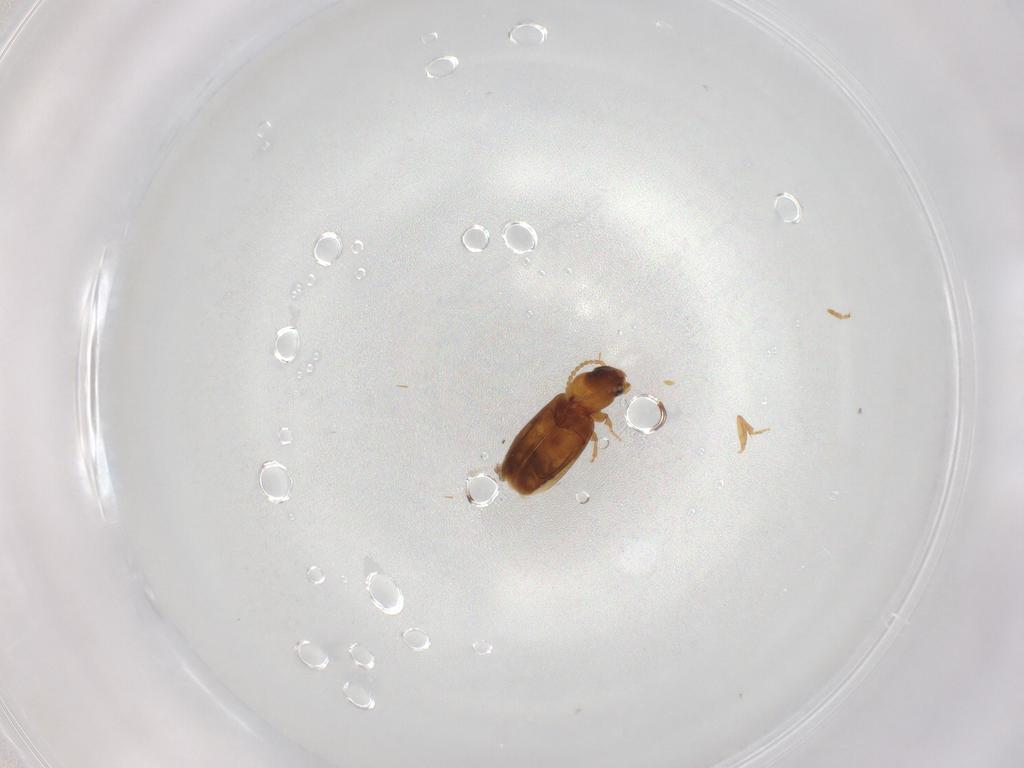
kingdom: Animalia
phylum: Arthropoda
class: Insecta
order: Coleoptera
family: Carabidae
